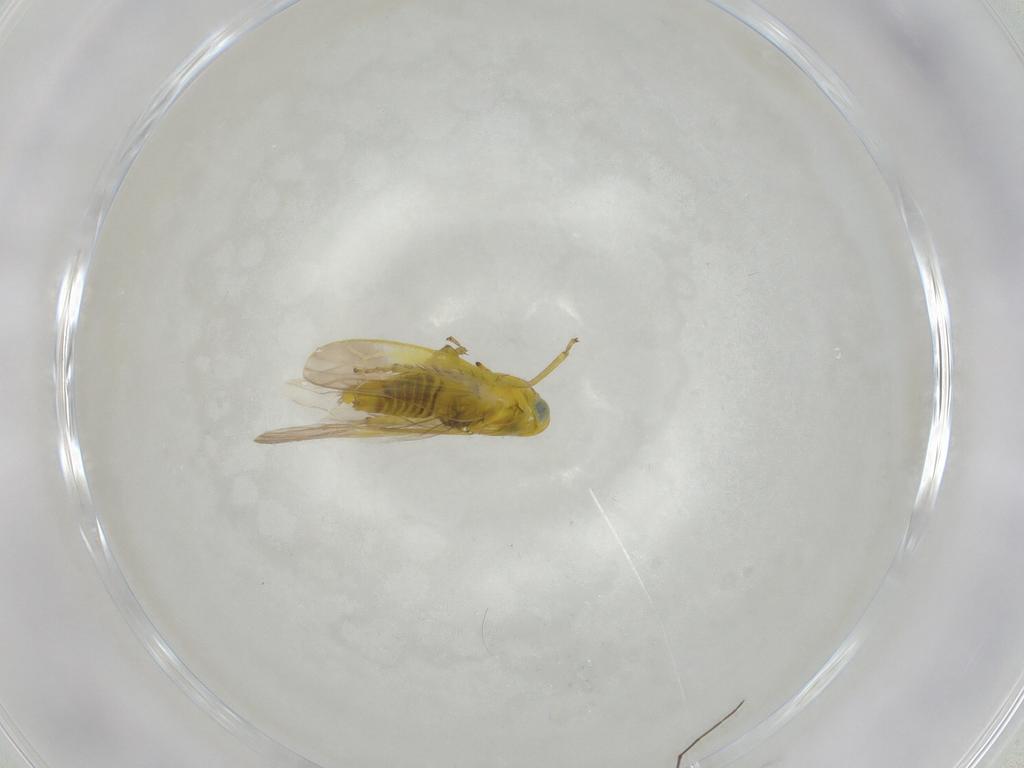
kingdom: Animalia
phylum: Arthropoda
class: Insecta
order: Hemiptera
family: Cicadellidae
